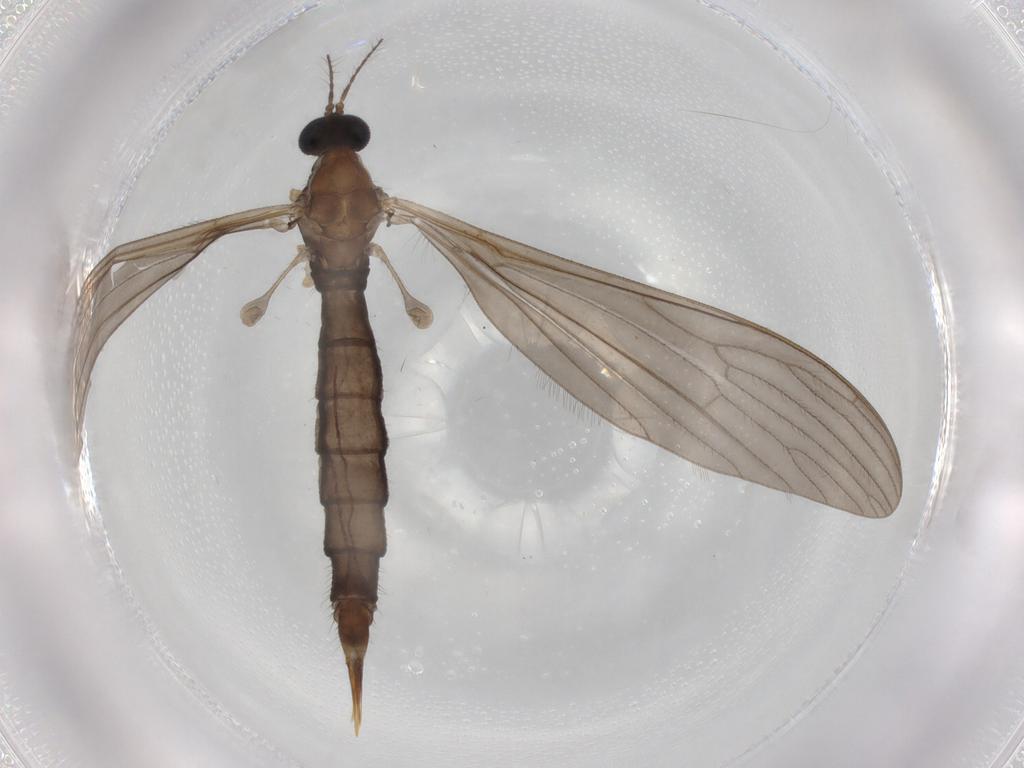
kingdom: Animalia
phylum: Arthropoda
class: Insecta
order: Diptera
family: Limoniidae
